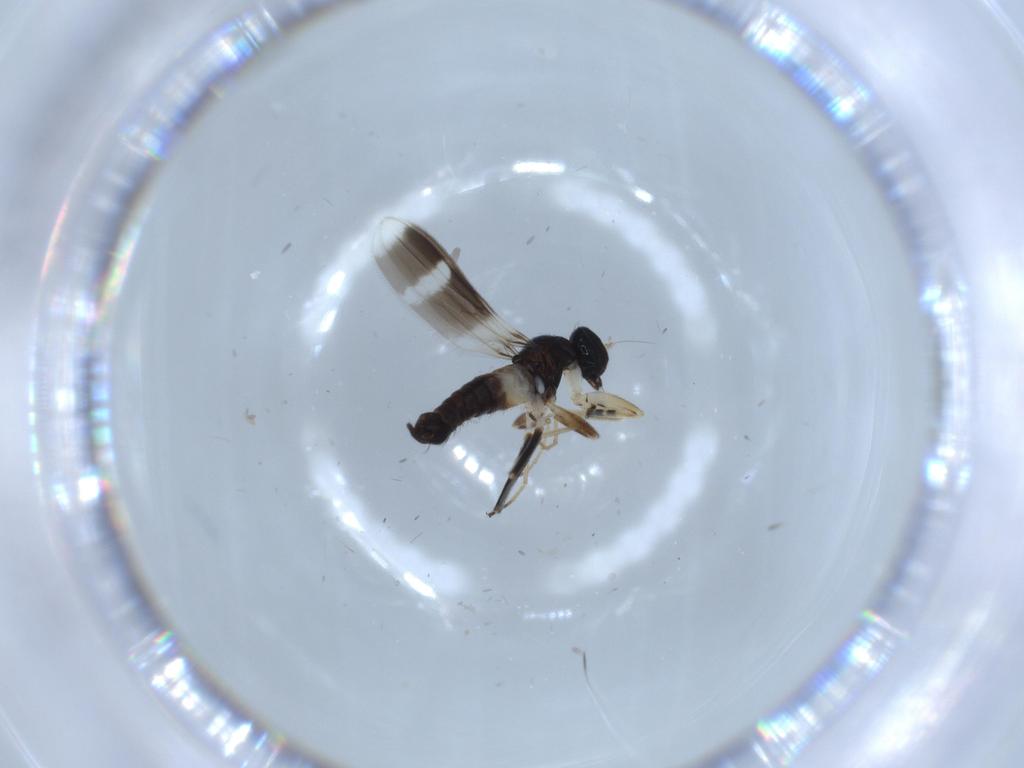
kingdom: Animalia
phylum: Arthropoda
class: Insecta
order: Diptera
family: Hybotidae
